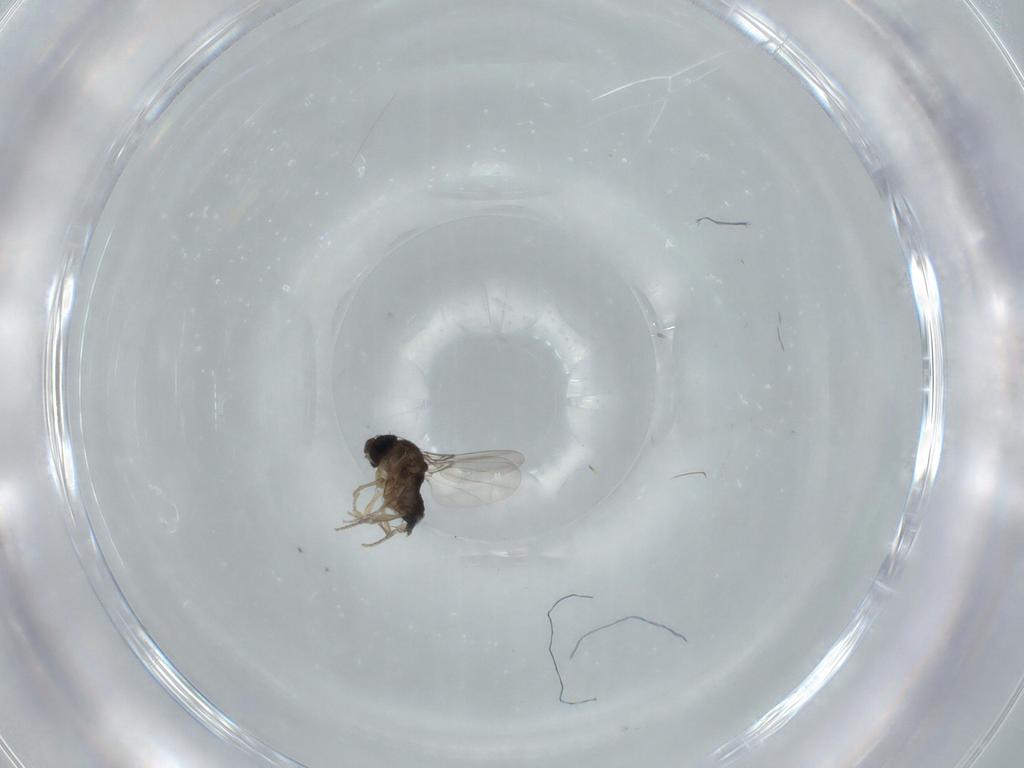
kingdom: Animalia
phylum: Arthropoda
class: Insecta
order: Diptera
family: Phoridae
